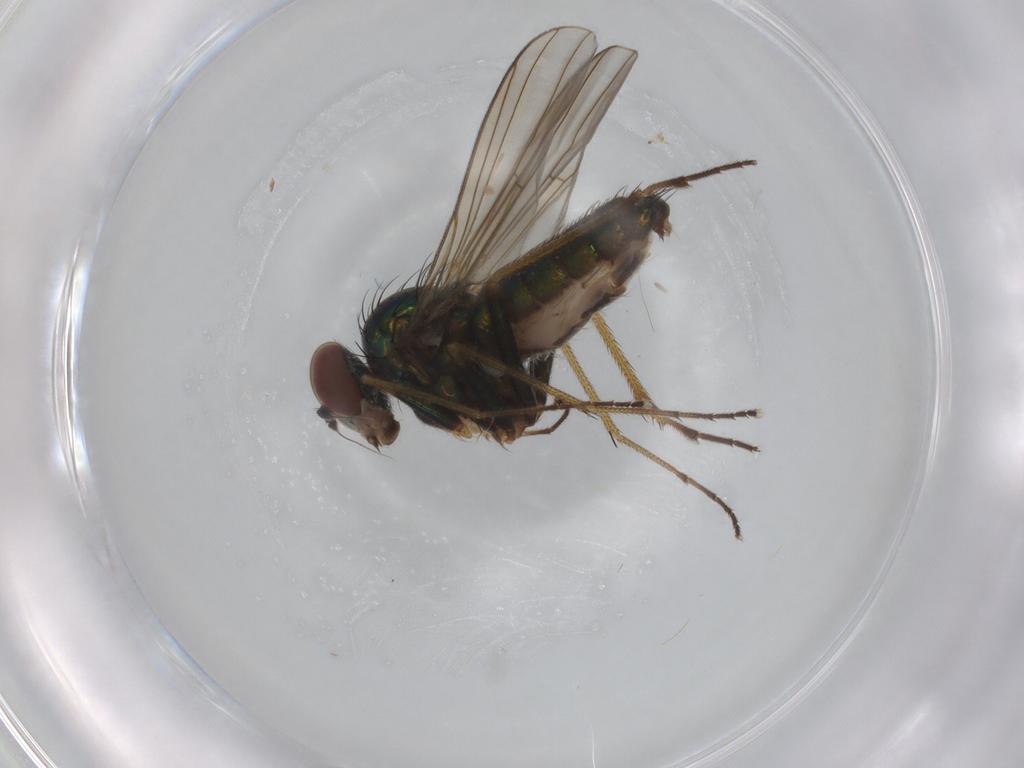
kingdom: Animalia
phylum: Arthropoda
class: Insecta
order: Diptera
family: Dolichopodidae
